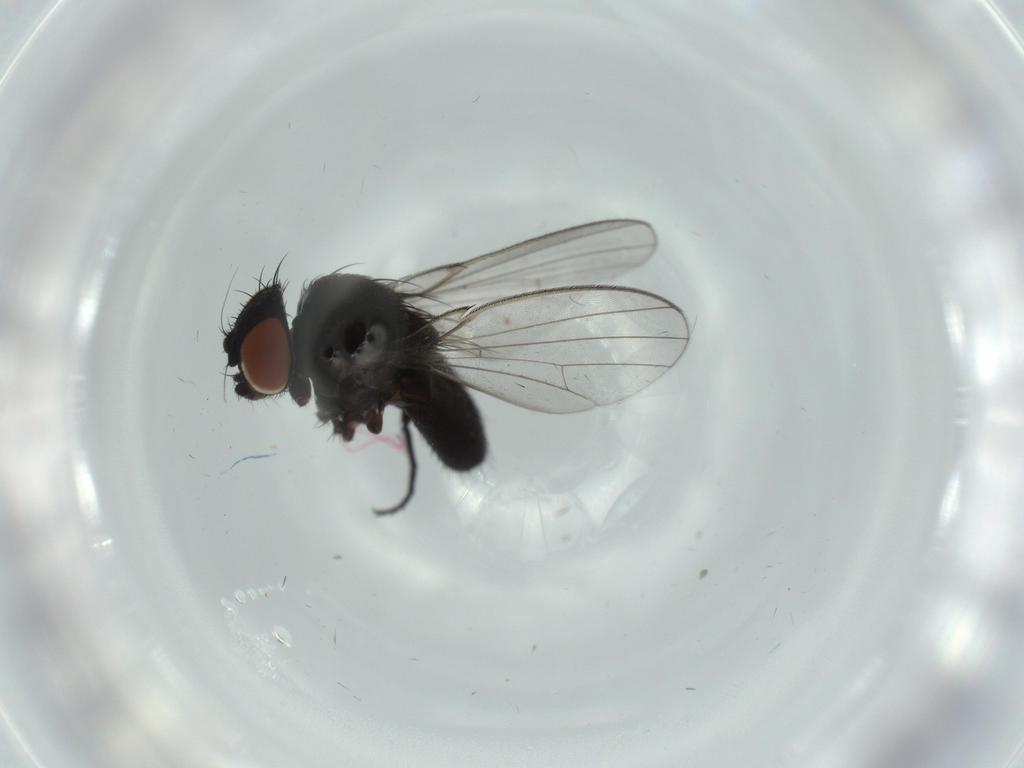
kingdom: Animalia
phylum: Arthropoda
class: Insecta
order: Diptera
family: Milichiidae
